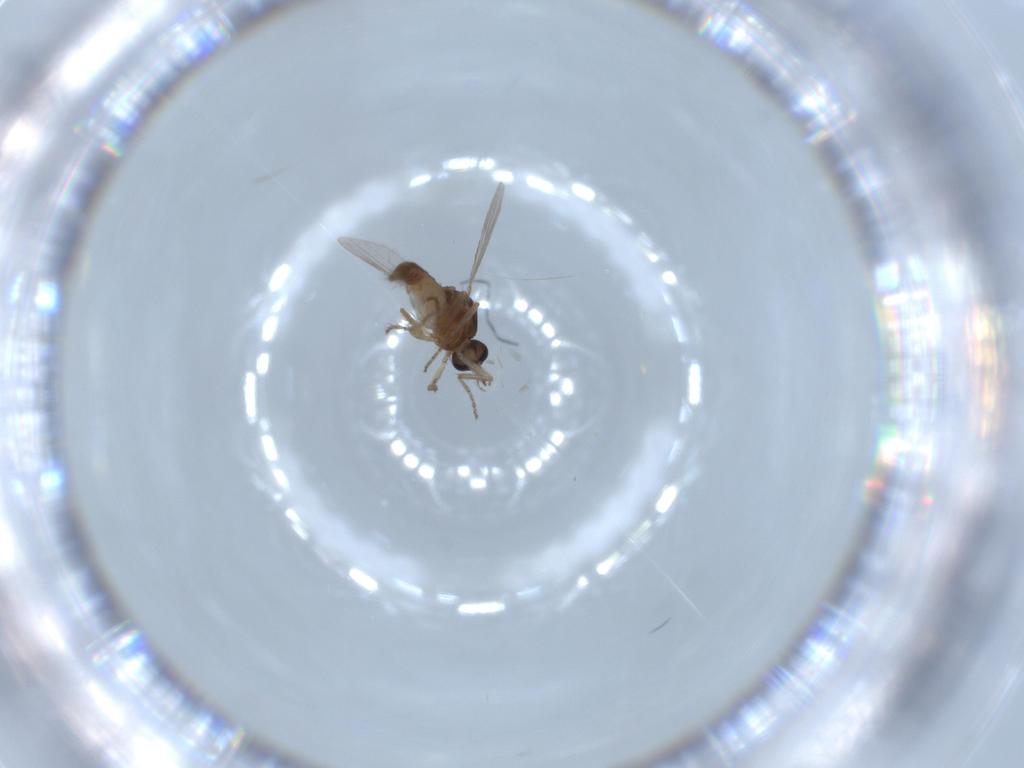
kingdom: Animalia
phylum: Arthropoda
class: Insecta
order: Diptera
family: Ceratopogonidae
